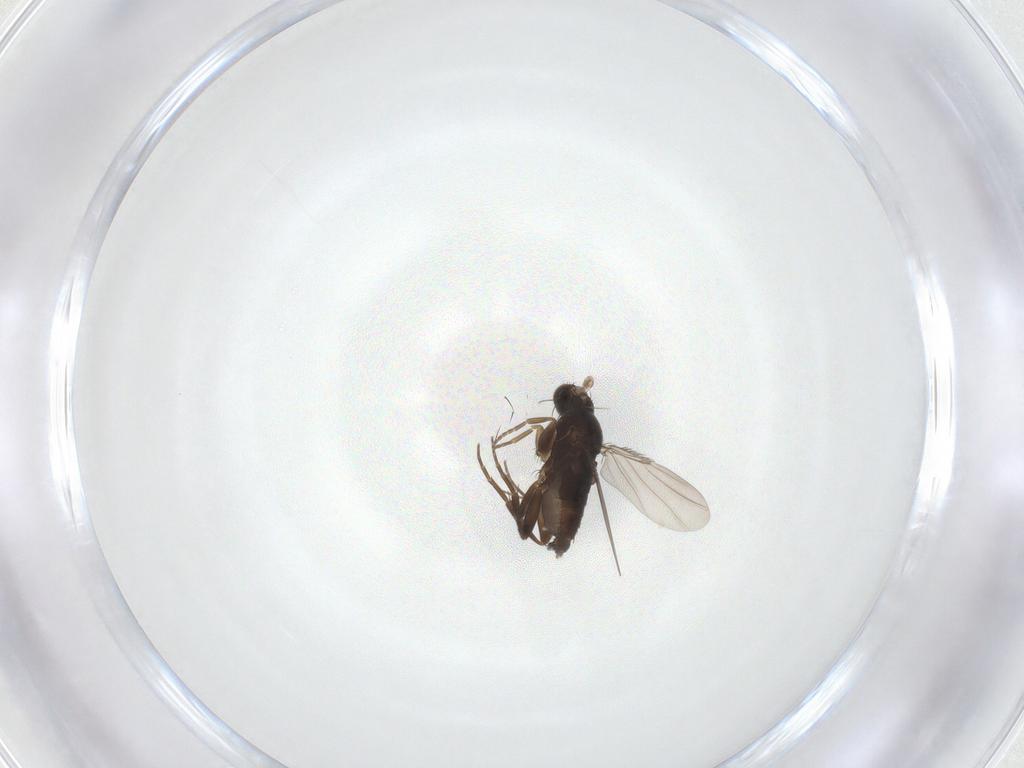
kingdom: Animalia
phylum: Arthropoda
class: Insecta
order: Diptera
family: Phoridae
